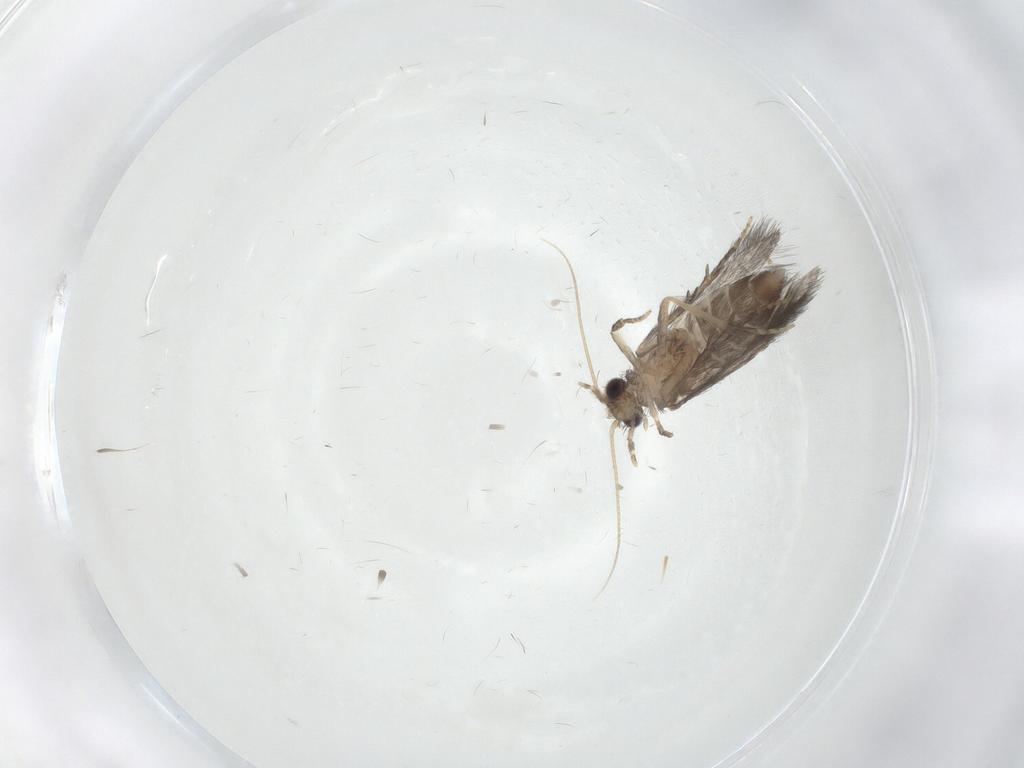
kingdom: Animalia
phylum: Arthropoda
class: Insecta
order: Trichoptera
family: Hydroptilidae
